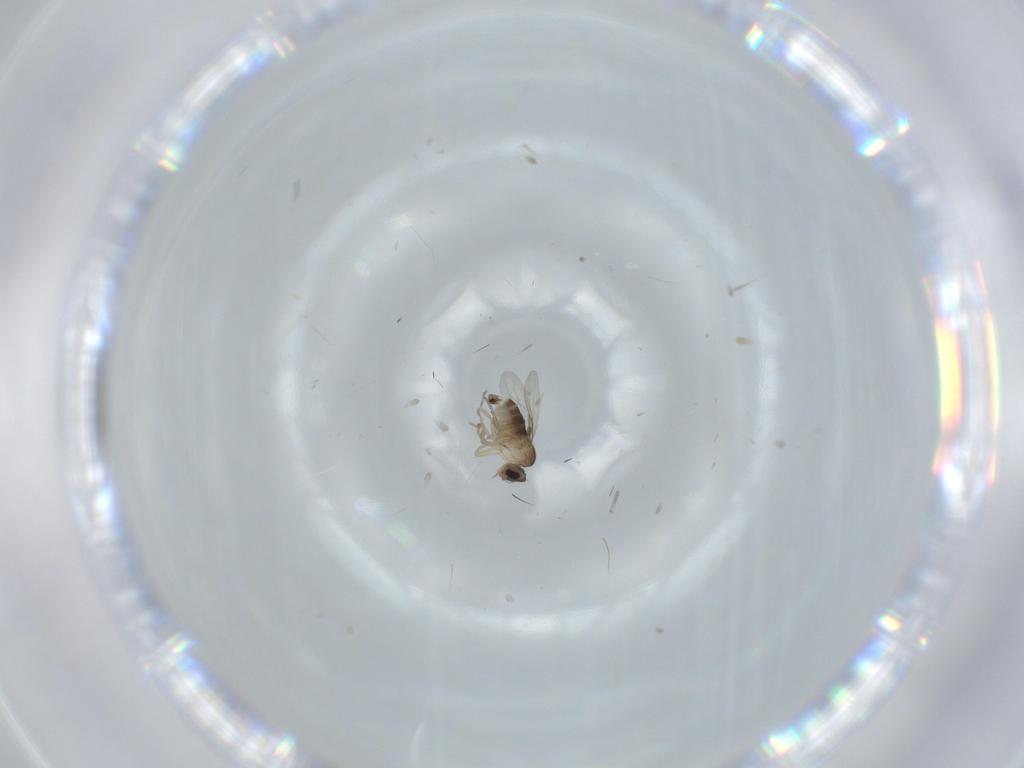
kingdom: Animalia
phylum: Arthropoda
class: Insecta
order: Diptera
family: Phoridae
